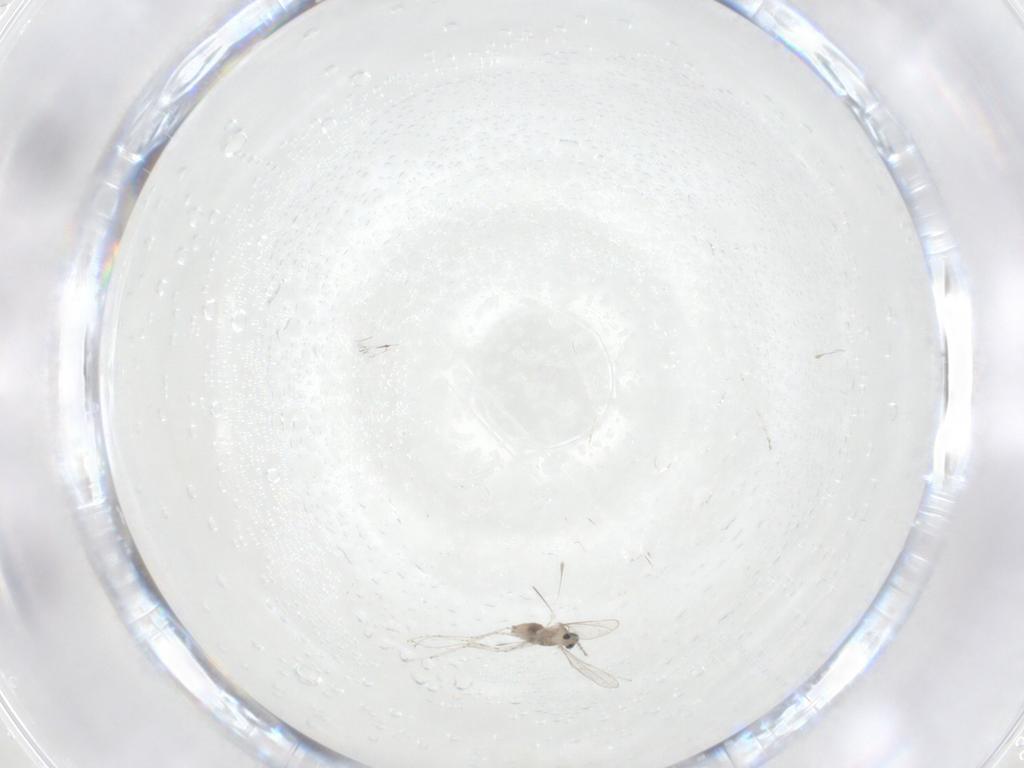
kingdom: Animalia
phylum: Arthropoda
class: Insecta
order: Diptera
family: Cecidomyiidae
